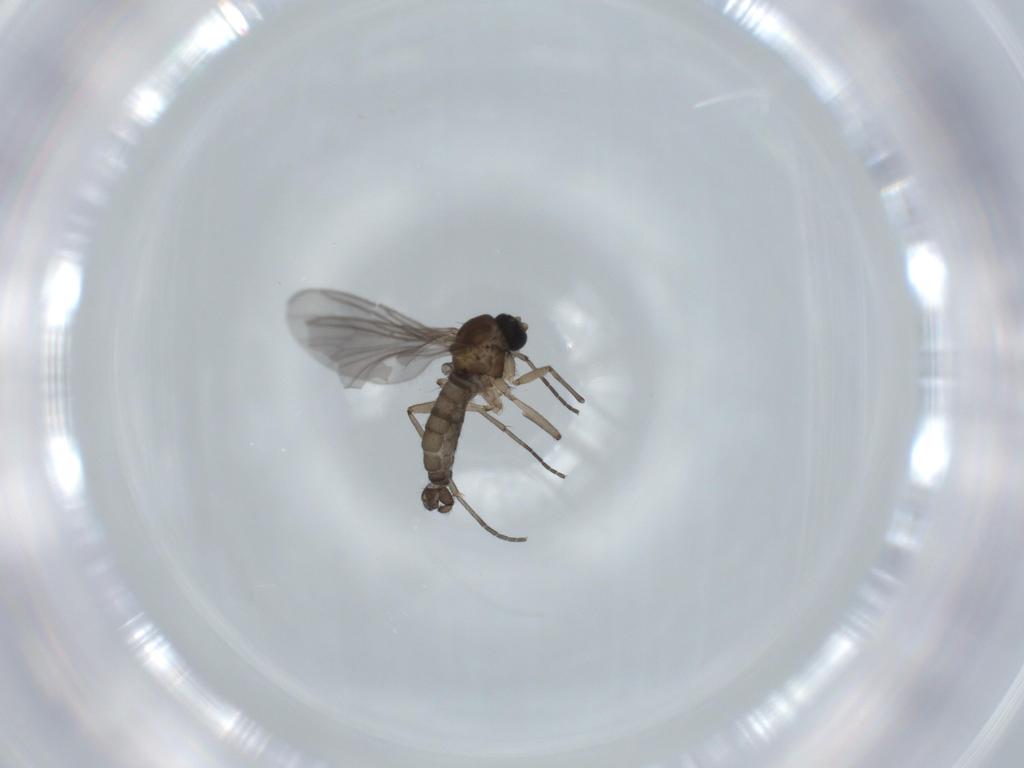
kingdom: Animalia
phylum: Arthropoda
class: Insecta
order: Diptera
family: Sciaridae
